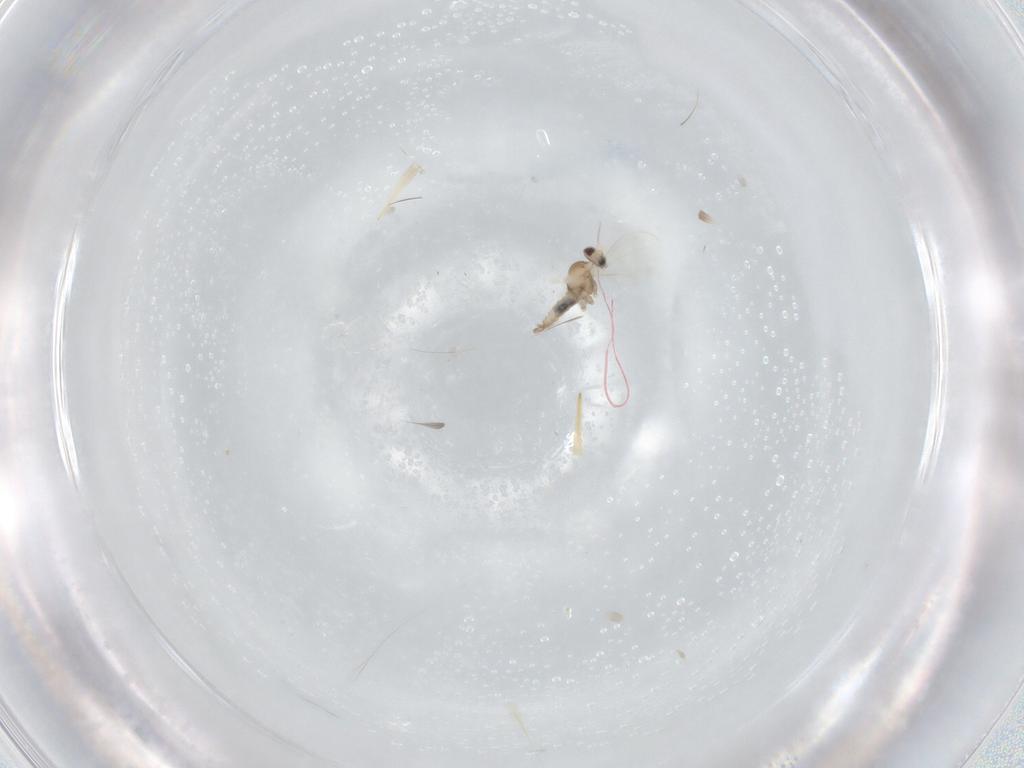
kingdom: Animalia
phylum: Arthropoda
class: Insecta
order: Diptera
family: Cecidomyiidae
